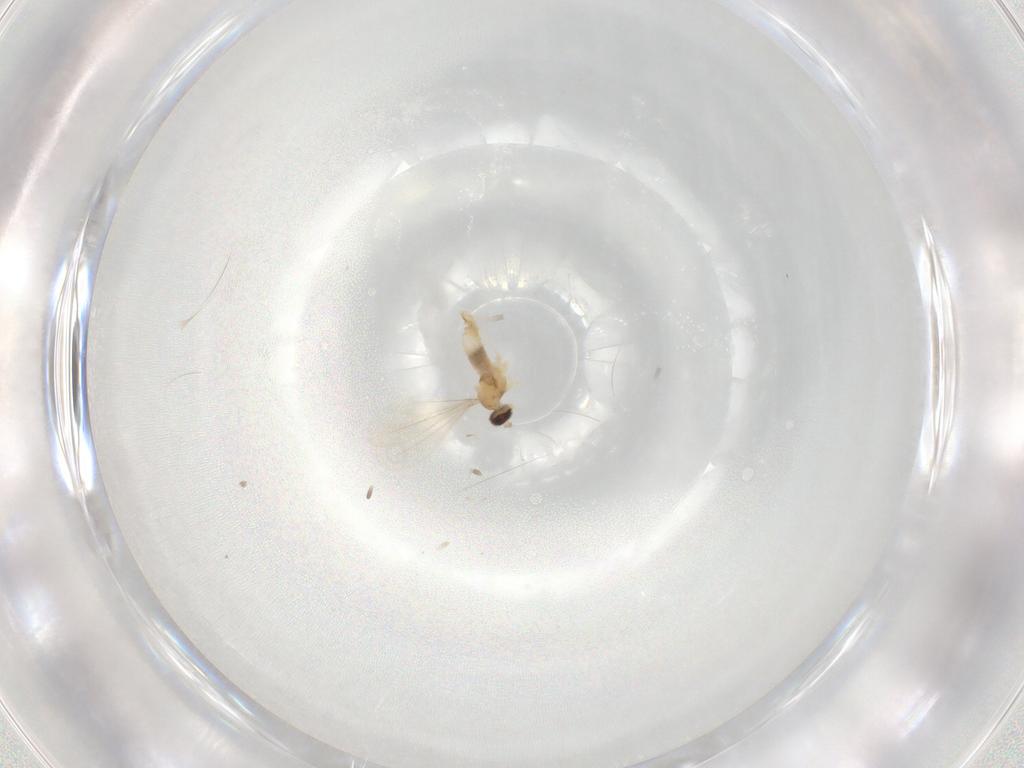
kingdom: Animalia
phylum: Arthropoda
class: Insecta
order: Diptera
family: Cecidomyiidae
